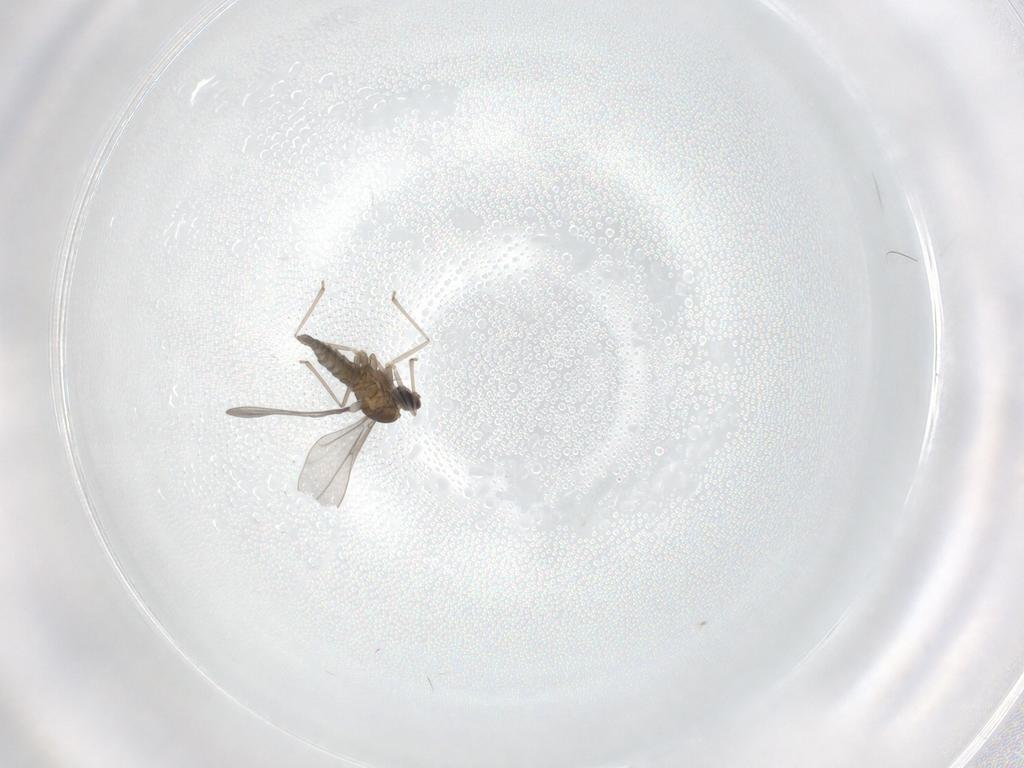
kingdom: Animalia
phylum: Arthropoda
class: Insecta
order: Diptera
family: Cecidomyiidae
